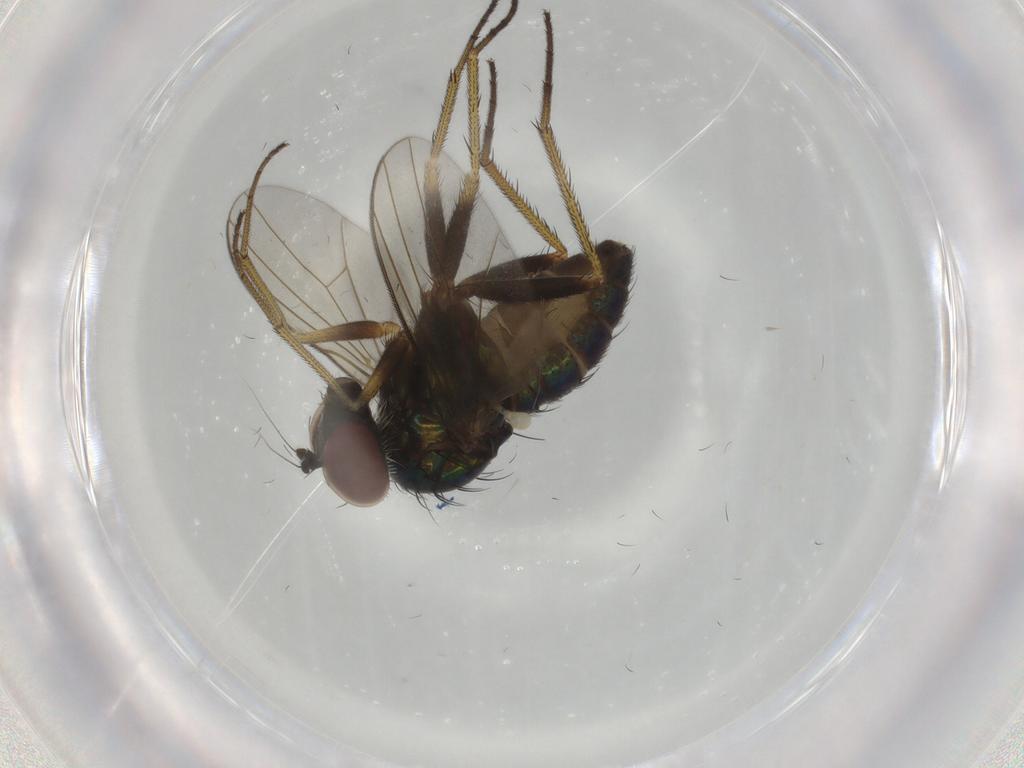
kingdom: Animalia
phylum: Arthropoda
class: Insecta
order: Diptera
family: Dolichopodidae
